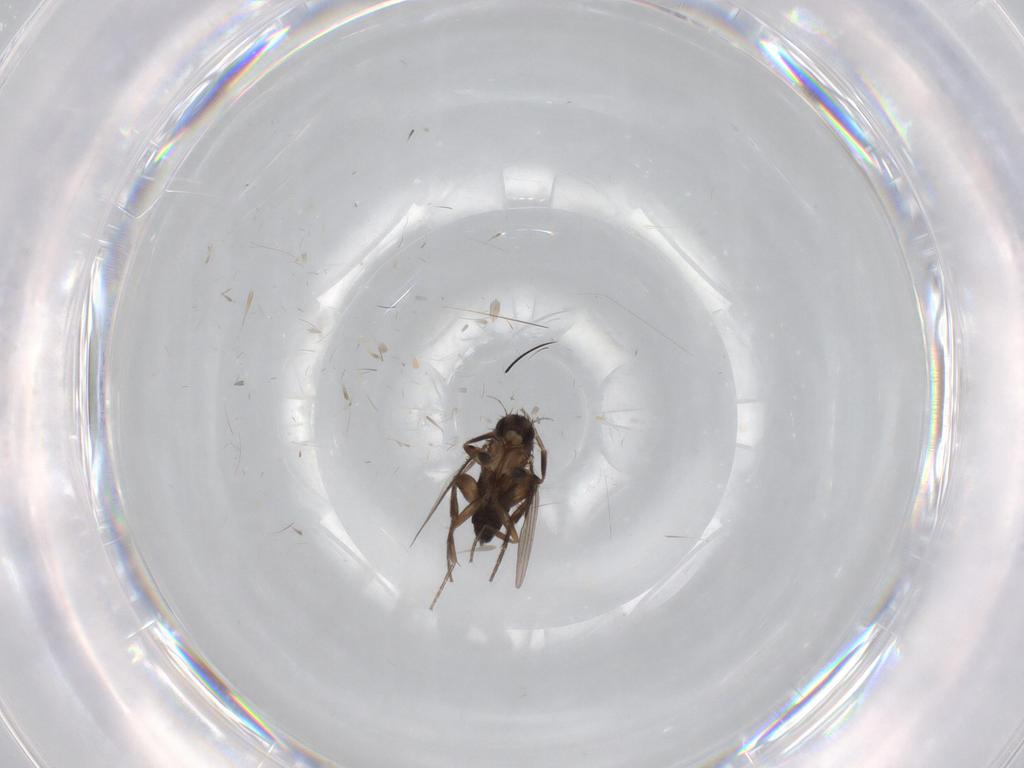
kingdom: Animalia
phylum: Arthropoda
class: Insecta
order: Diptera
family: Phoridae
